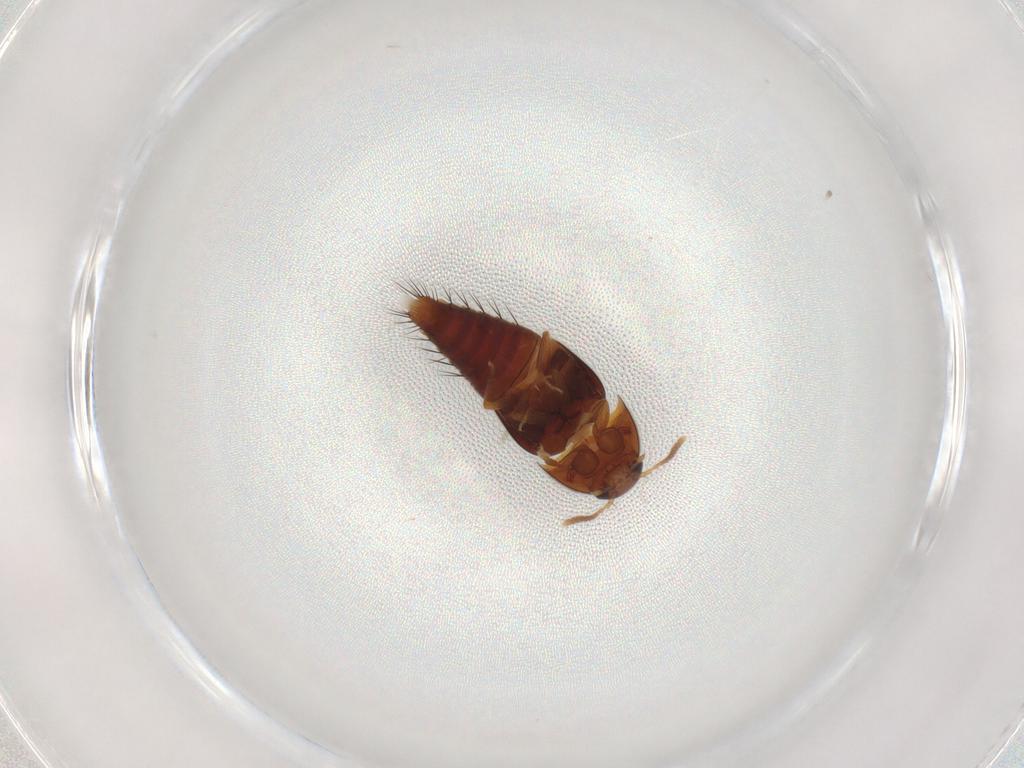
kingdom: Animalia
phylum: Arthropoda
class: Insecta
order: Coleoptera
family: Staphylinidae
